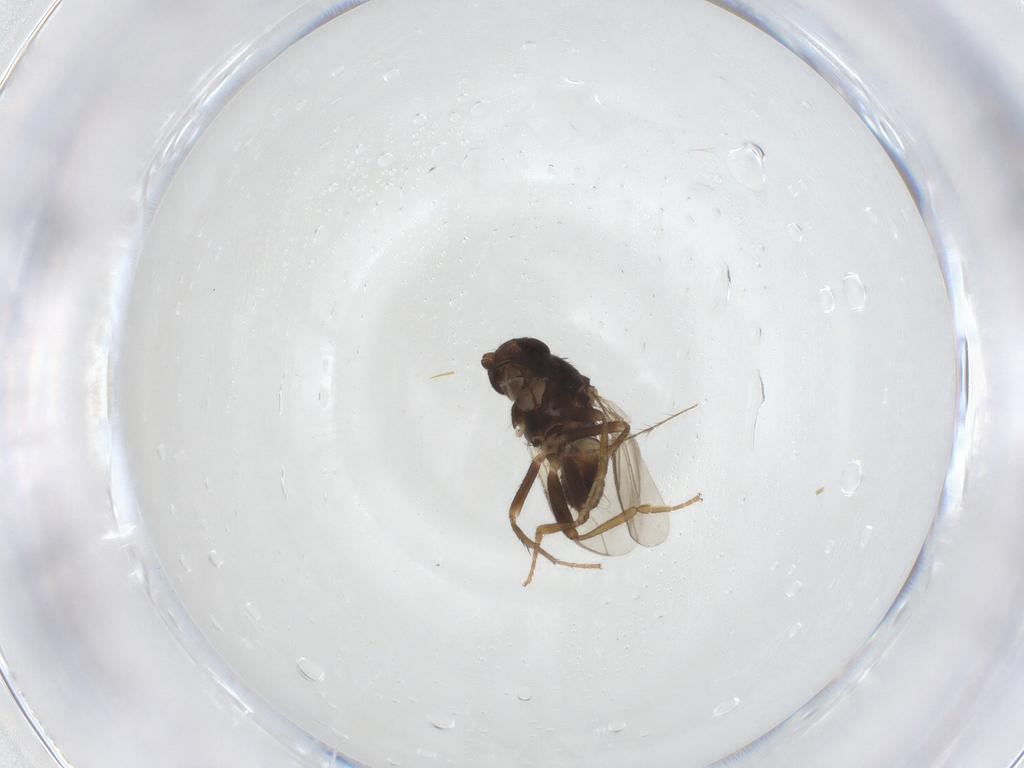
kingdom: Animalia
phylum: Arthropoda
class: Insecta
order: Diptera
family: Sphaeroceridae
